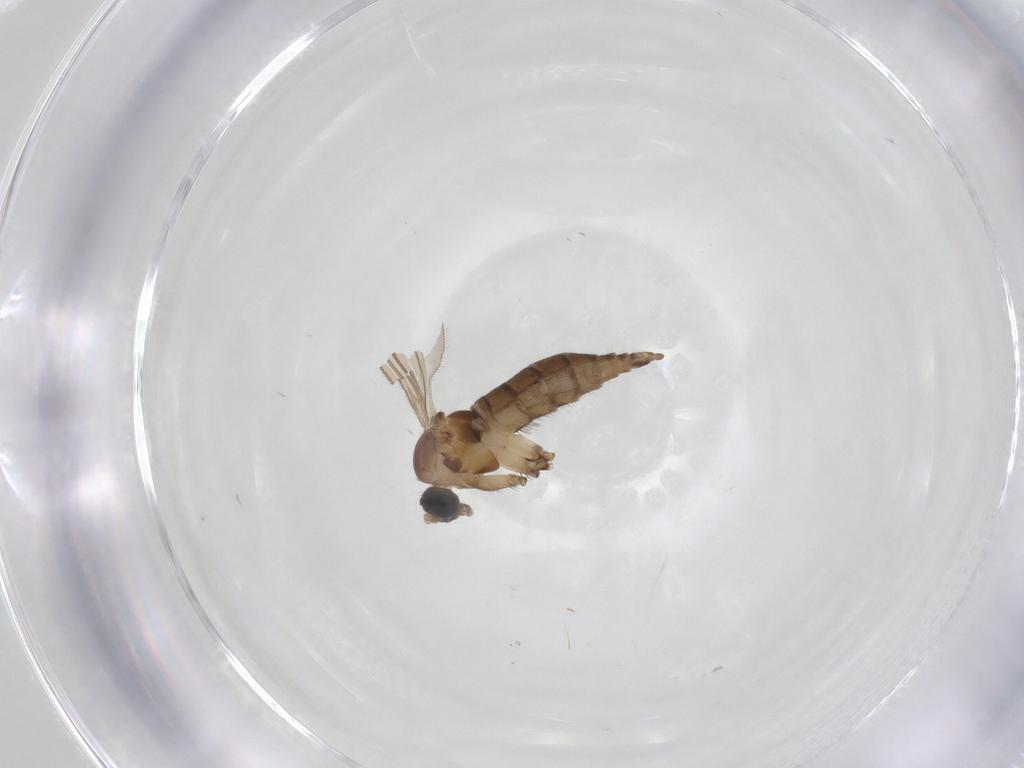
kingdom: Animalia
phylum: Arthropoda
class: Insecta
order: Diptera
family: Sciaridae
